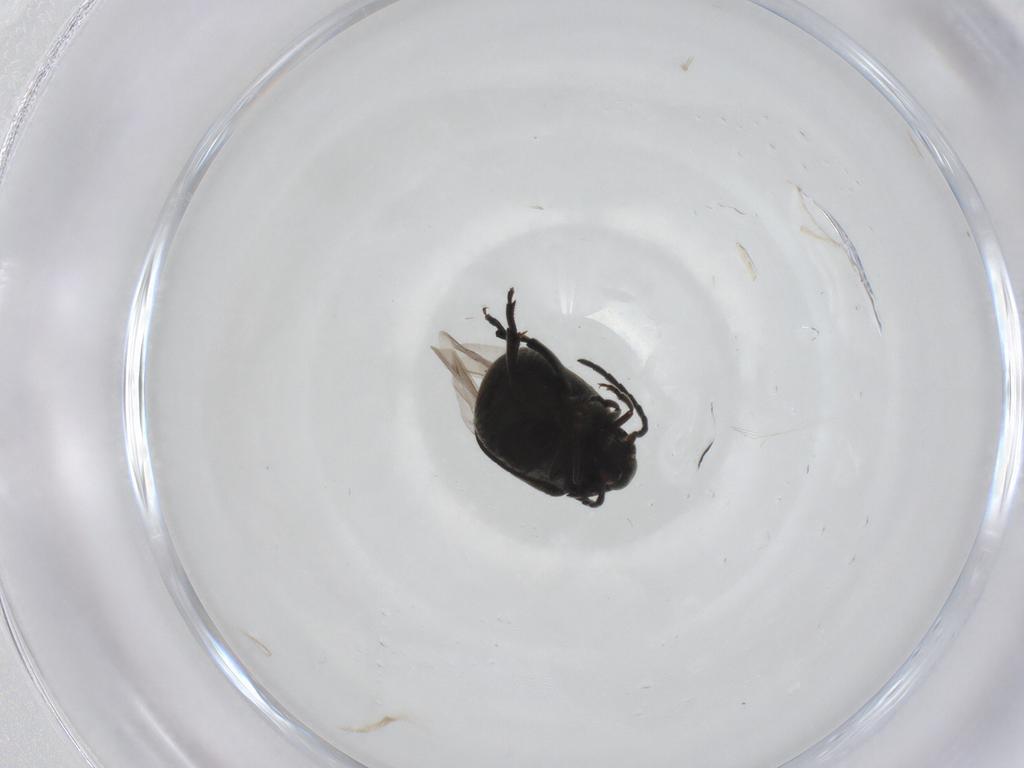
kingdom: Animalia
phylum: Arthropoda
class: Insecta
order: Coleoptera
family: Chrysomelidae
